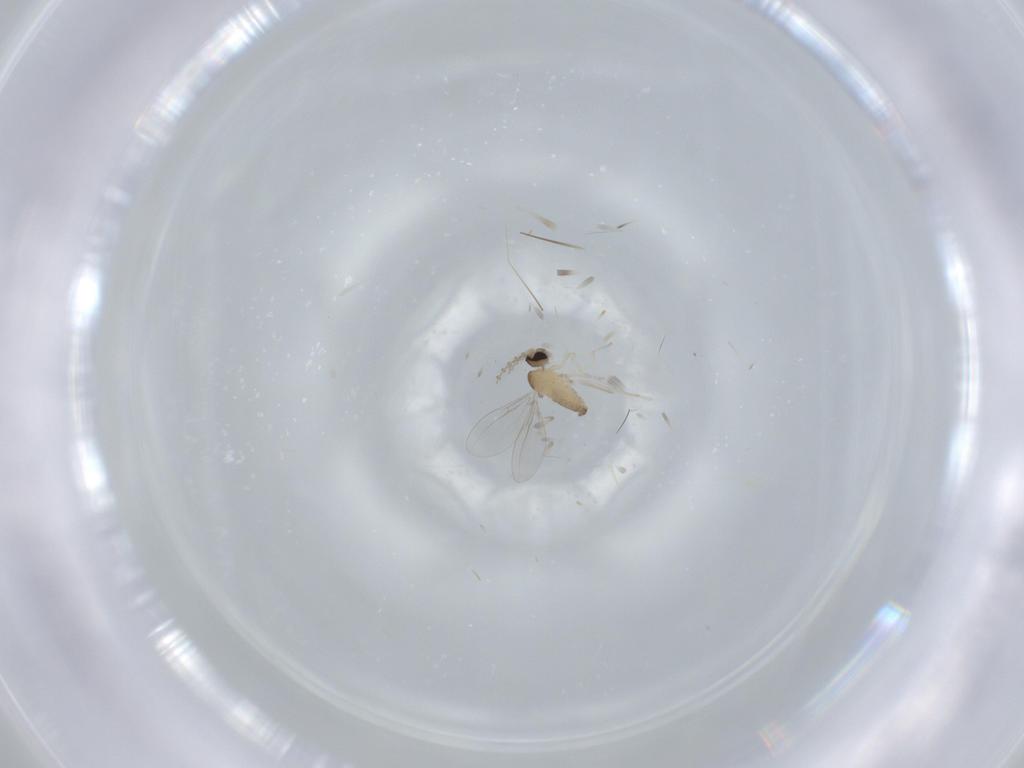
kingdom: Animalia
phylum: Arthropoda
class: Insecta
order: Diptera
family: Cecidomyiidae
